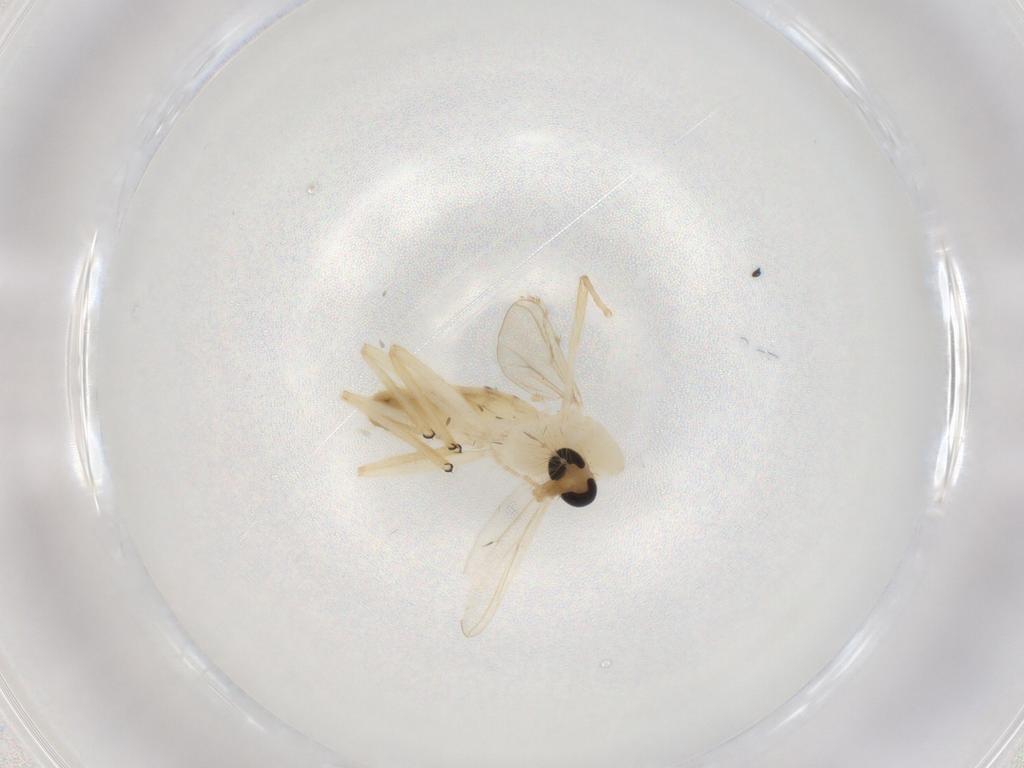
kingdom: Animalia
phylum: Arthropoda
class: Insecta
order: Diptera
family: Chironomidae
